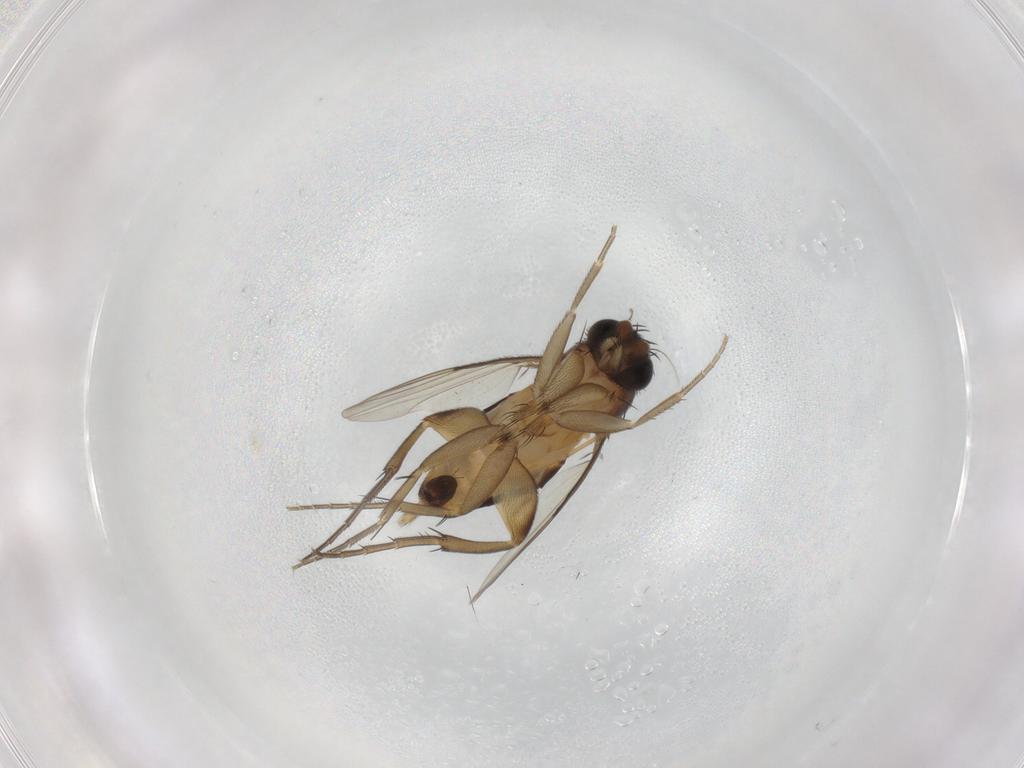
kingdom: Animalia
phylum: Arthropoda
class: Insecta
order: Diptera
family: Phoridae
